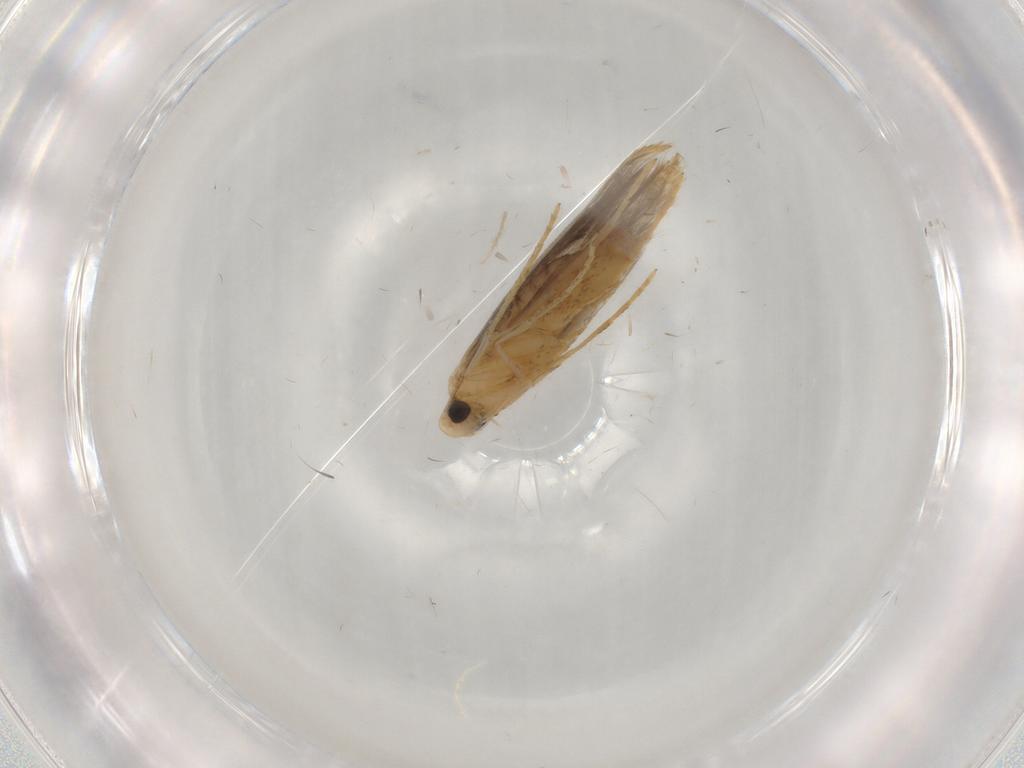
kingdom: Animalia
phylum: Arthropoda
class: Insecta
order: Lepidoptera
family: Tischeriidae
